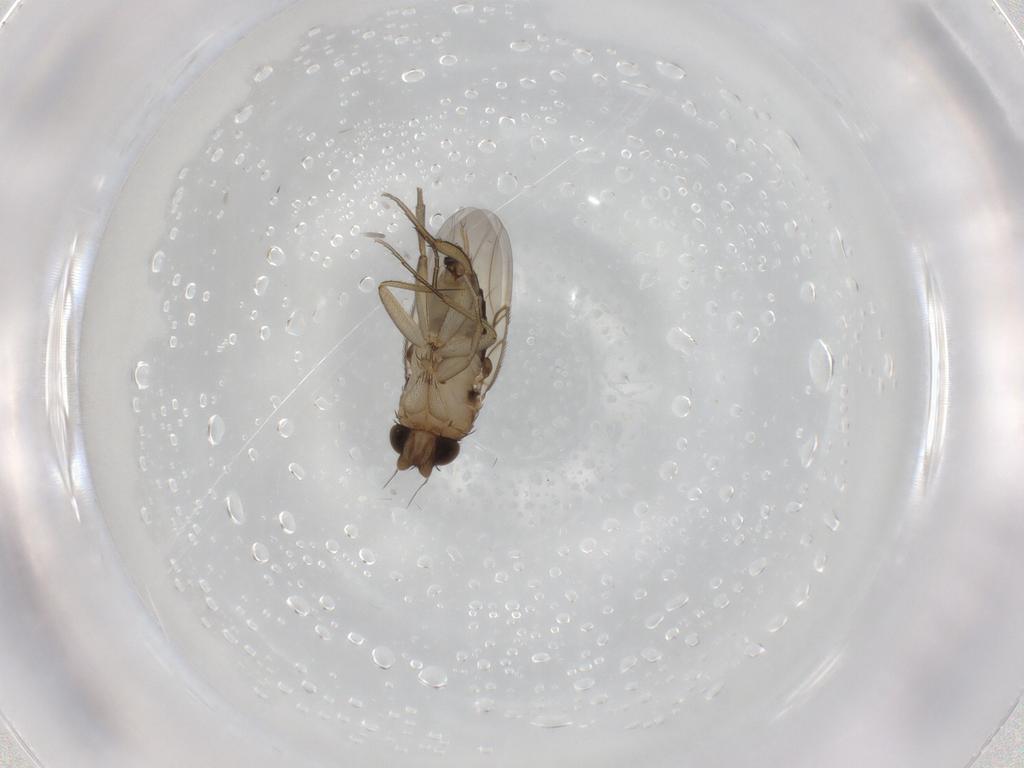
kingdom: Animalia
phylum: Arthropoda
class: Insecta
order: Diptera
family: Phoridae
